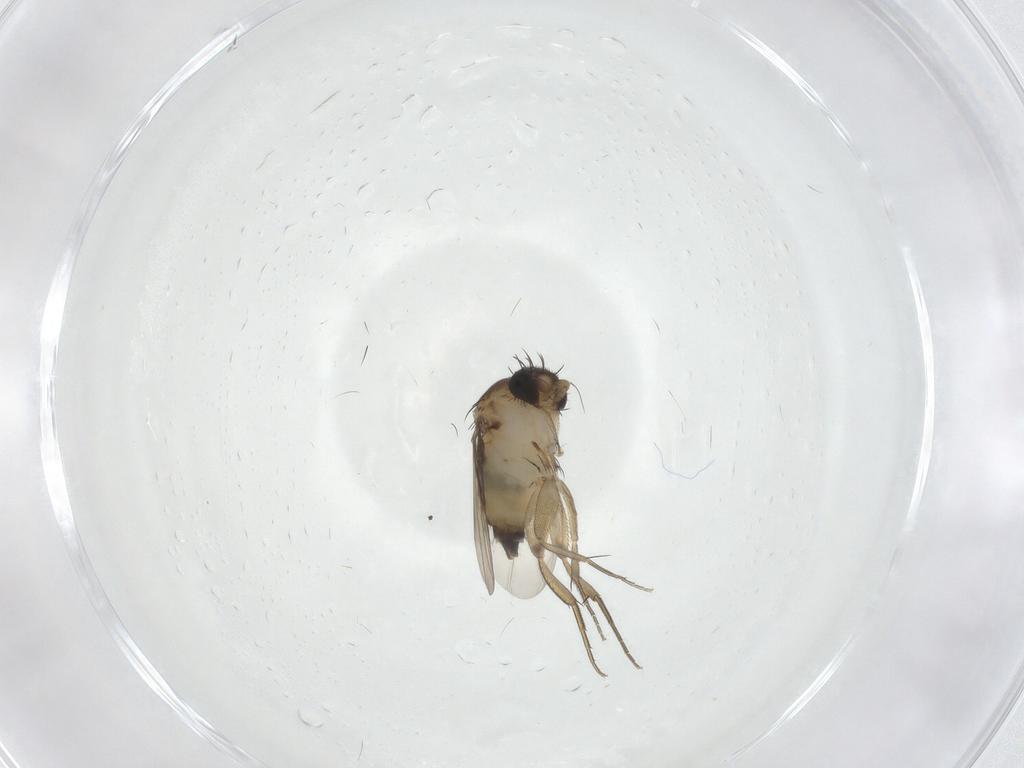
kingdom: Animalia
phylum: Arthropoda
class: Insecta
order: Diptera
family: Phoridae
